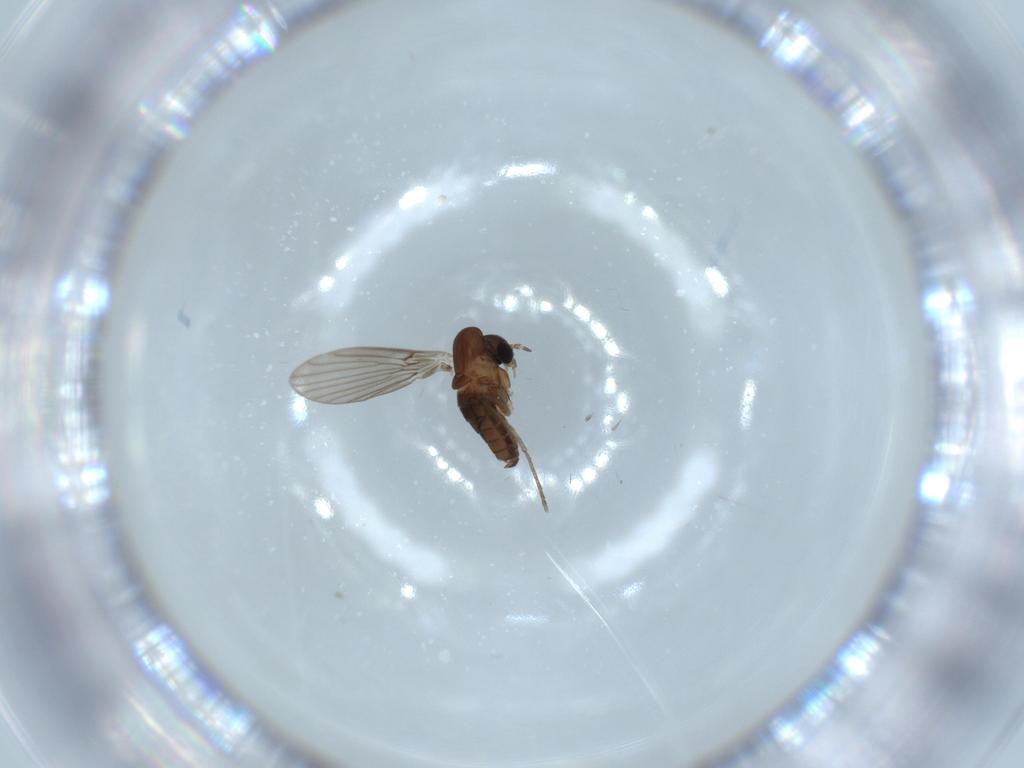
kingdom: Animalia
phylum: Arthropoda
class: Insecta
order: Diptera
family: Psychodidae
